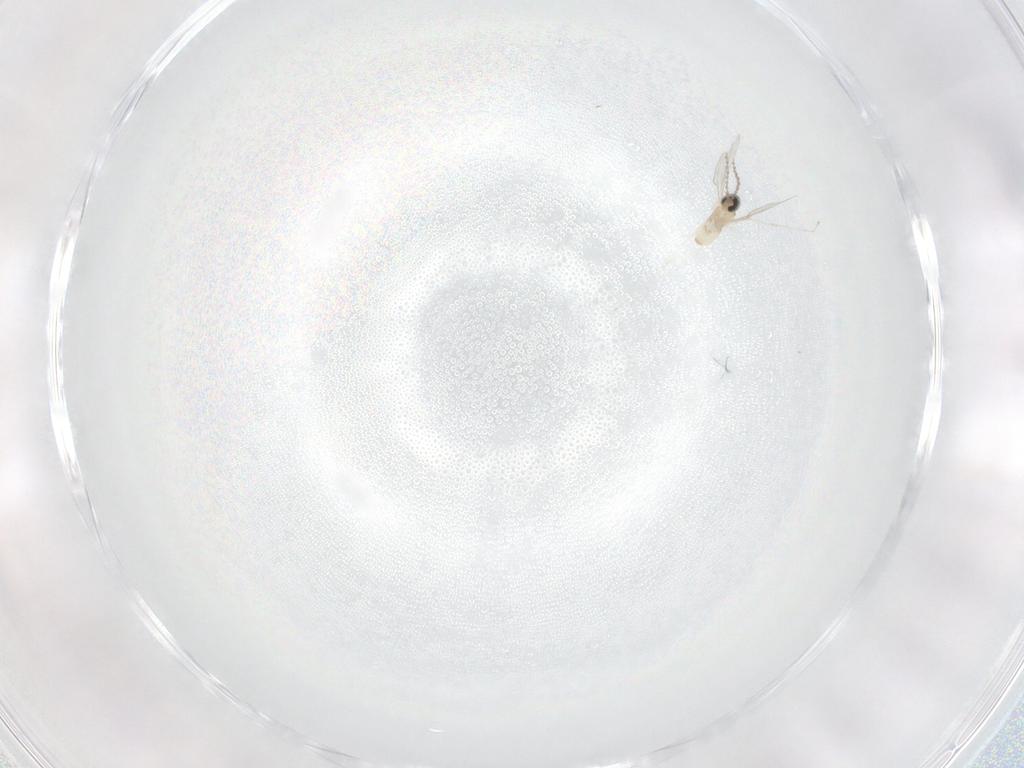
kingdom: Animalia
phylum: Arthropoda
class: Insecta
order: Diptera
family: Cecidomyiidae
